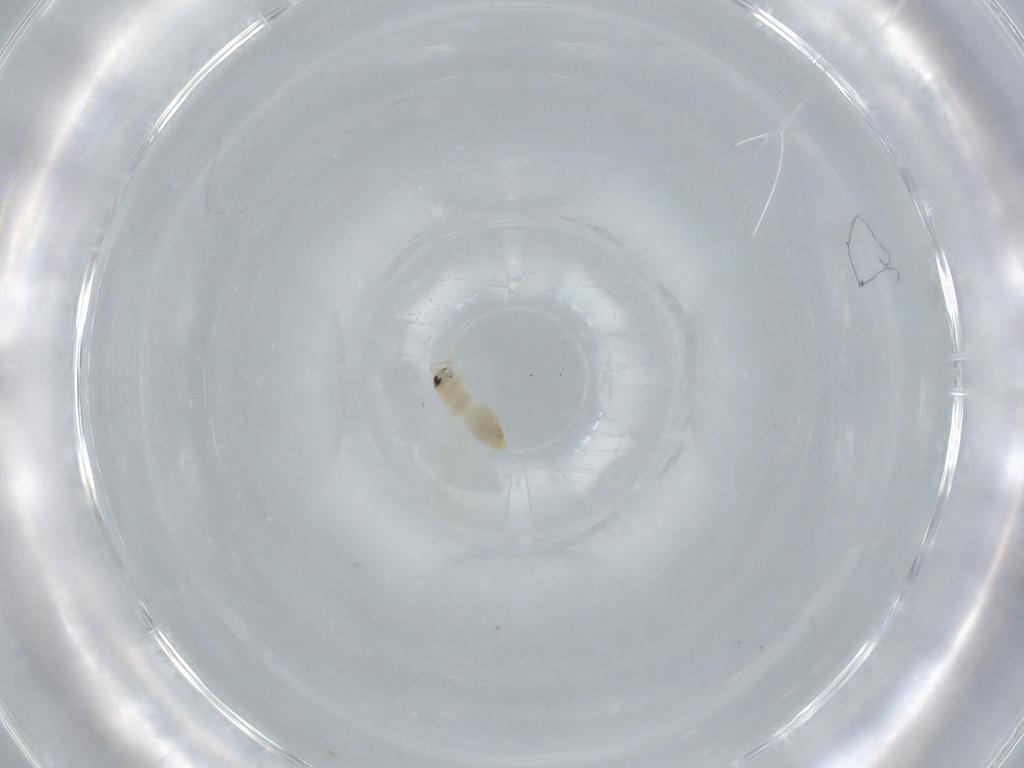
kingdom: Animalia
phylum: Arthropoda
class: Insecta
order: Hemiptera
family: Aleyrodidae
